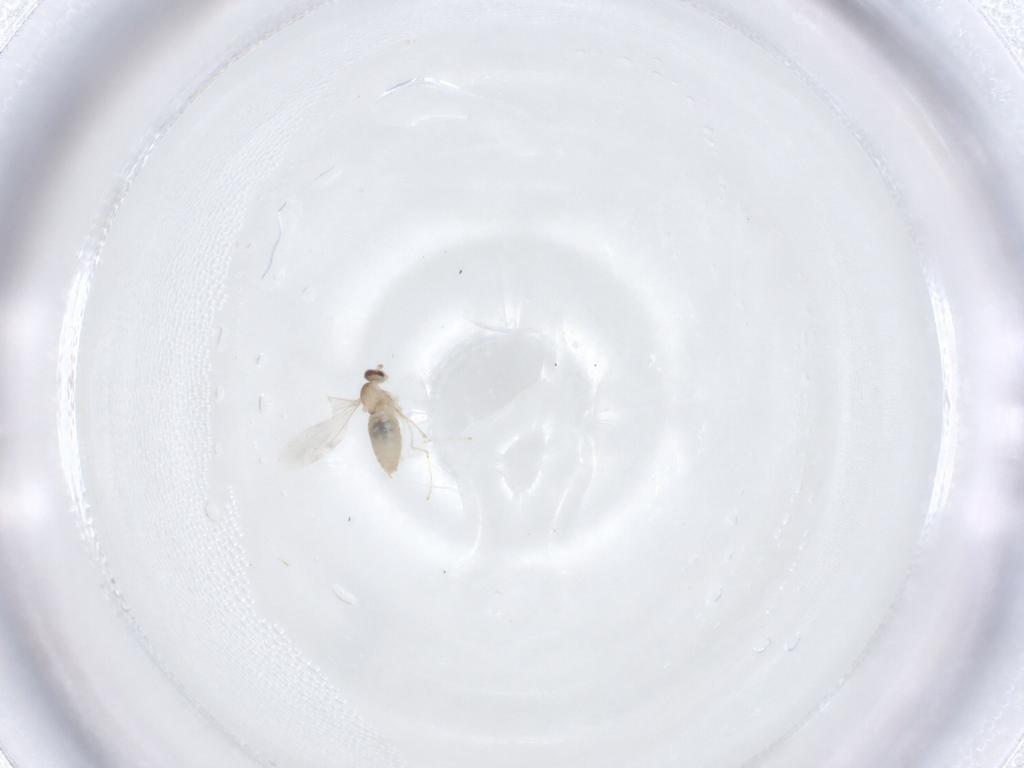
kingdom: Animalia
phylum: Arthropoda
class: Insecta
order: Diptera
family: Cecidomyiidae
